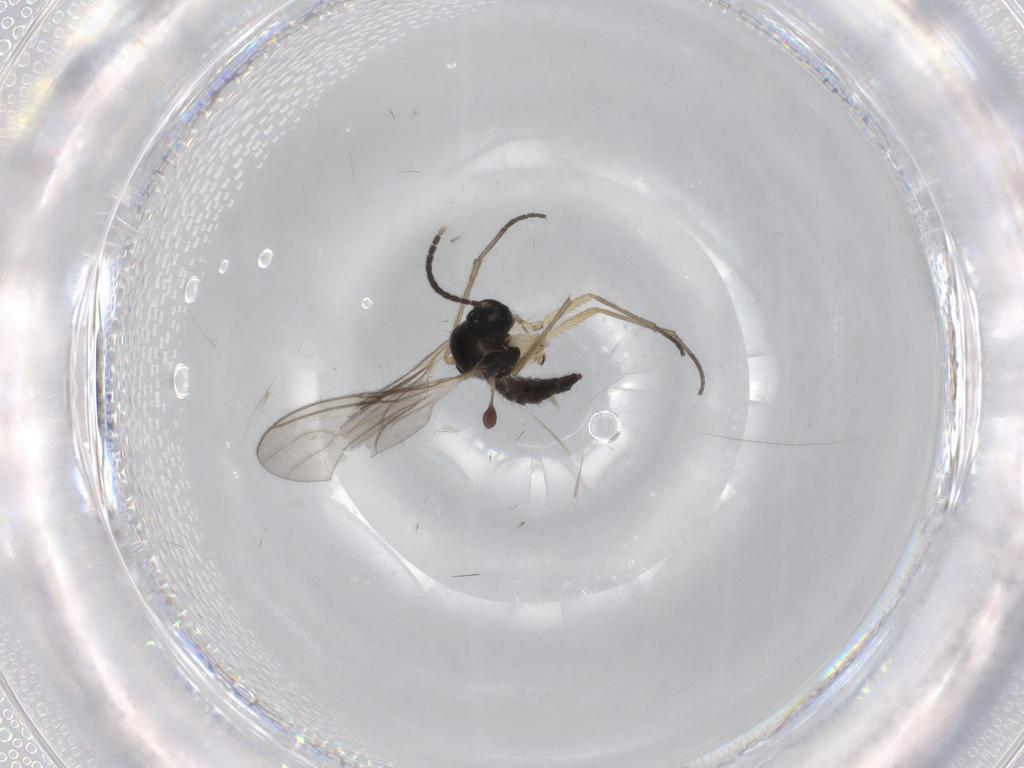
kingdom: Animalia
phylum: Arthropoda
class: Insecta
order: Diptera
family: Sciaridae
